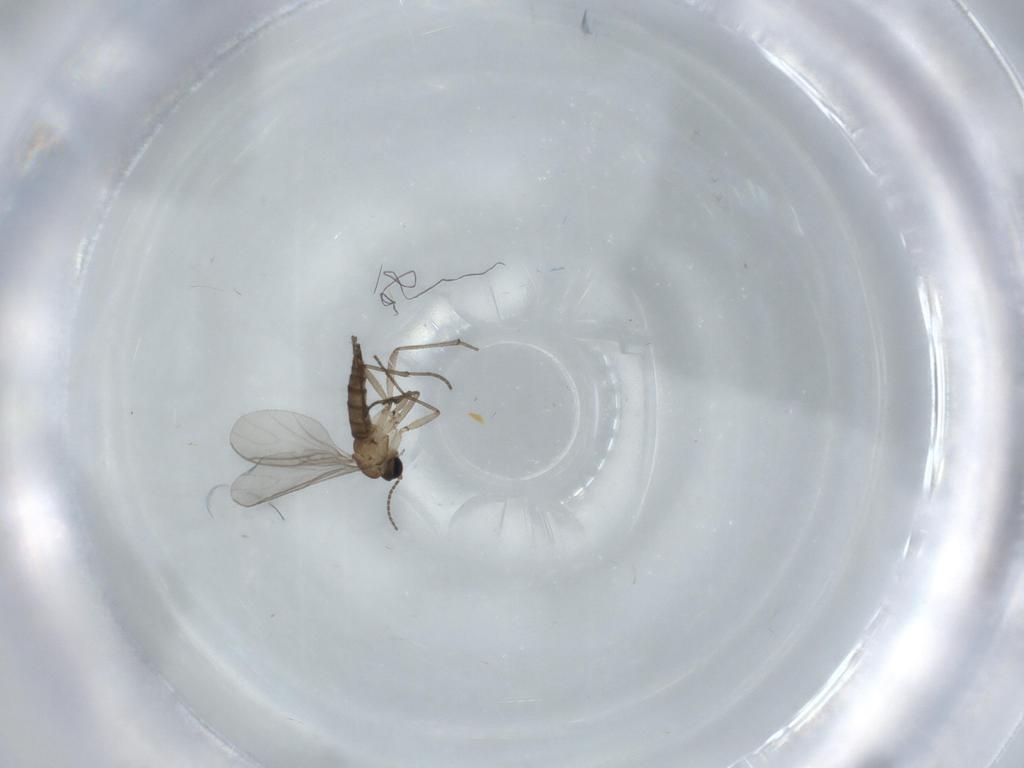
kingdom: Animalia
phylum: Arthropoda
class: Insecta
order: Diptera
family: Sciaridae
